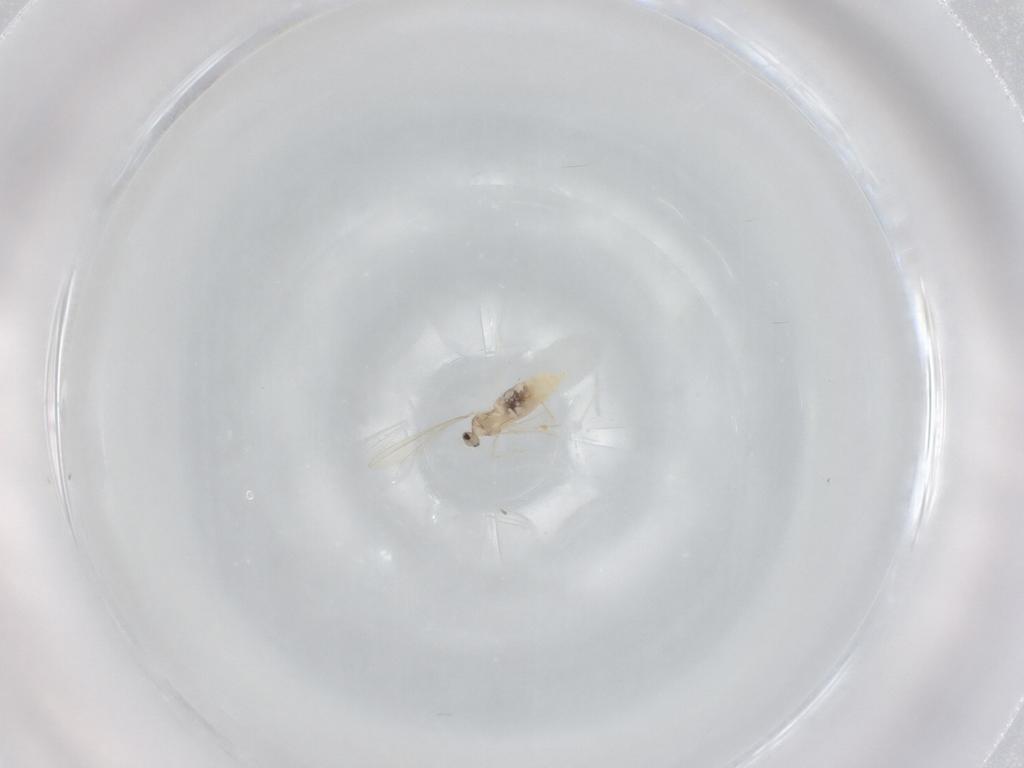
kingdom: Animalia
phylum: Arthropoda
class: Insecta
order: Diptera
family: Cecidomyiidae
